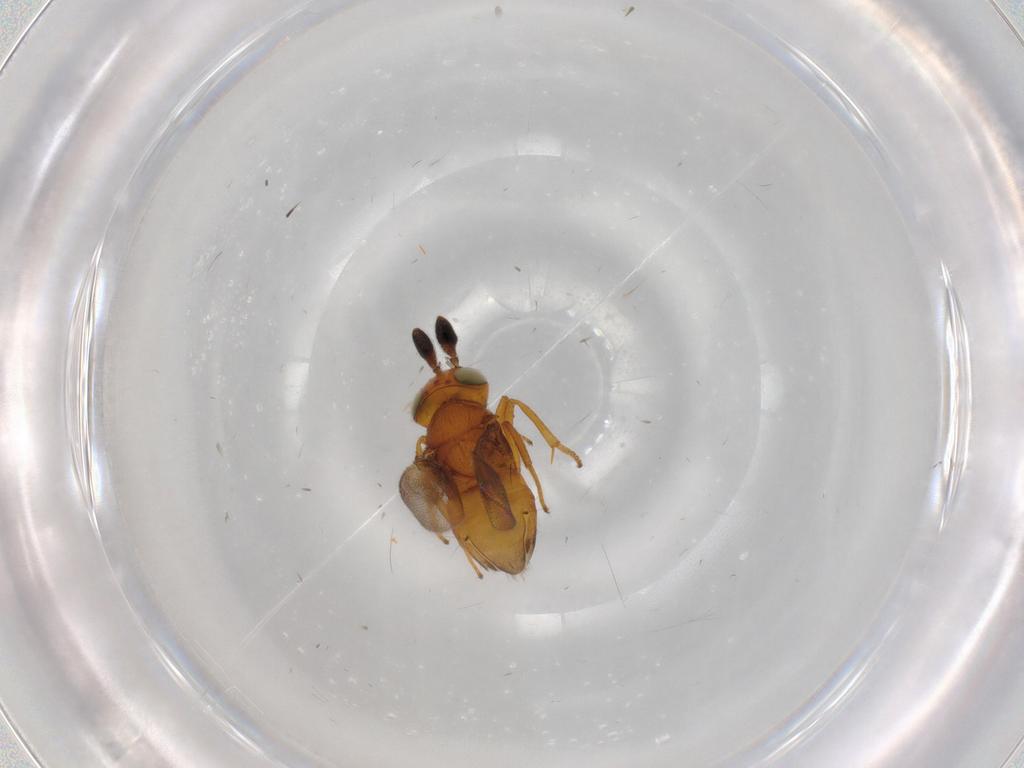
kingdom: Animalia
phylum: Arthropoda
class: Insecta
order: Hymenoptera
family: Encyrtidae
